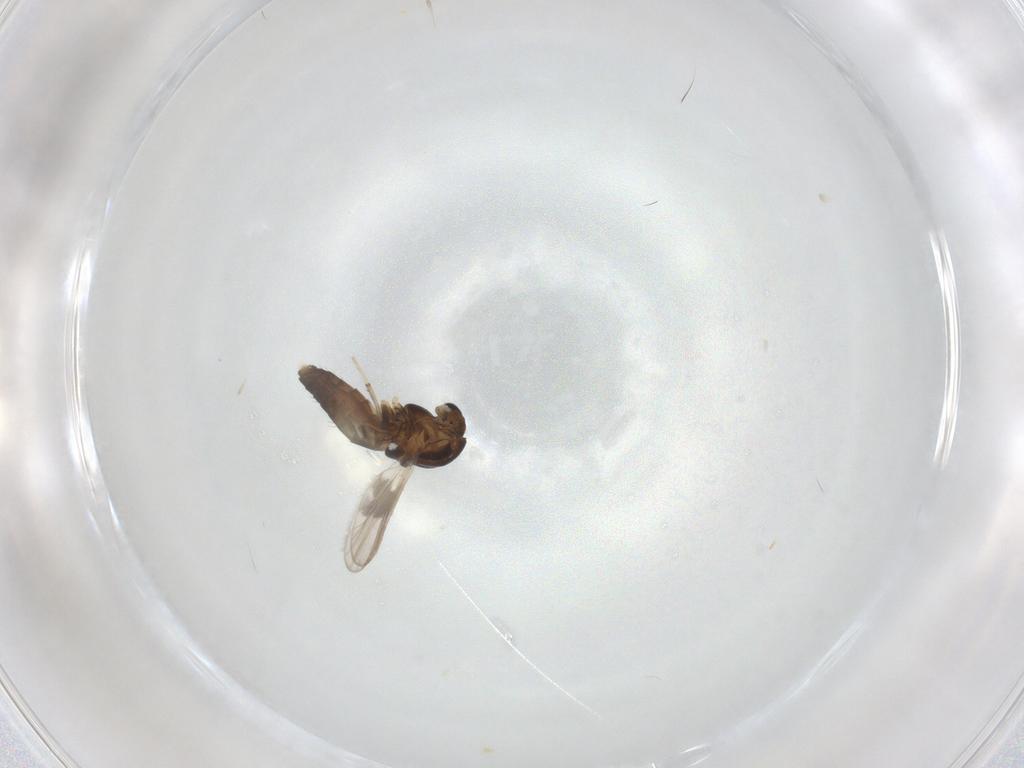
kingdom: Animalia
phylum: Arthropoda
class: Insecta
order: Diptera
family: Chironomidae
